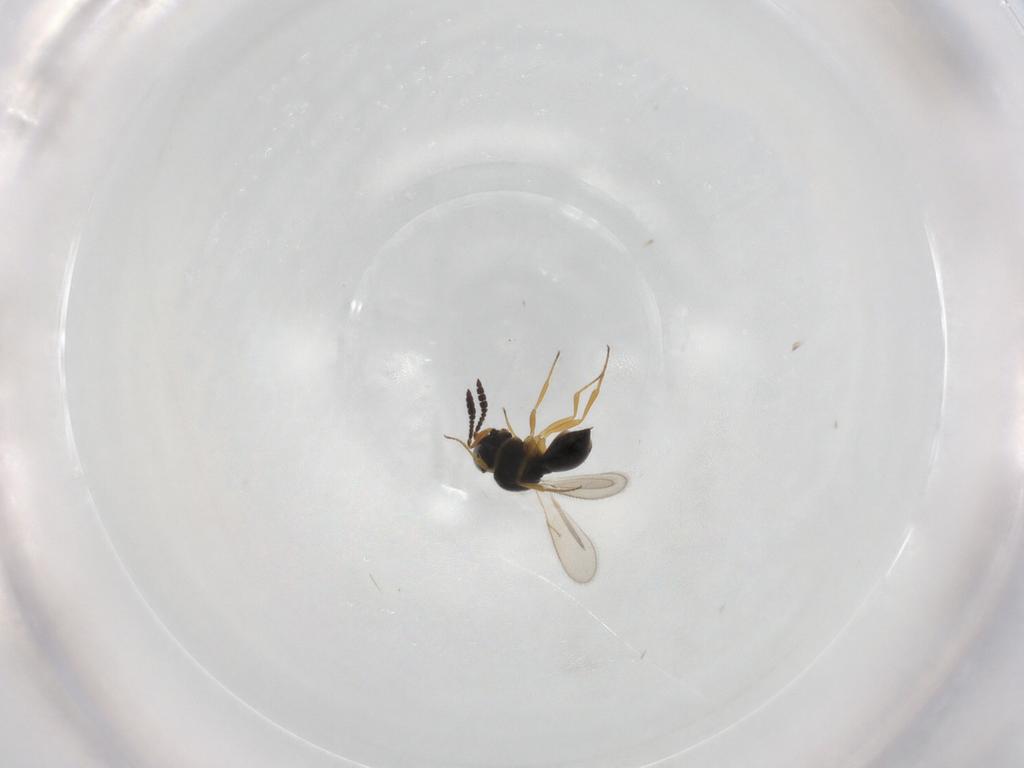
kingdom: Animalia
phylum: Arthropoda
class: Insecta
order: Hymenoptera
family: Scelionidae
